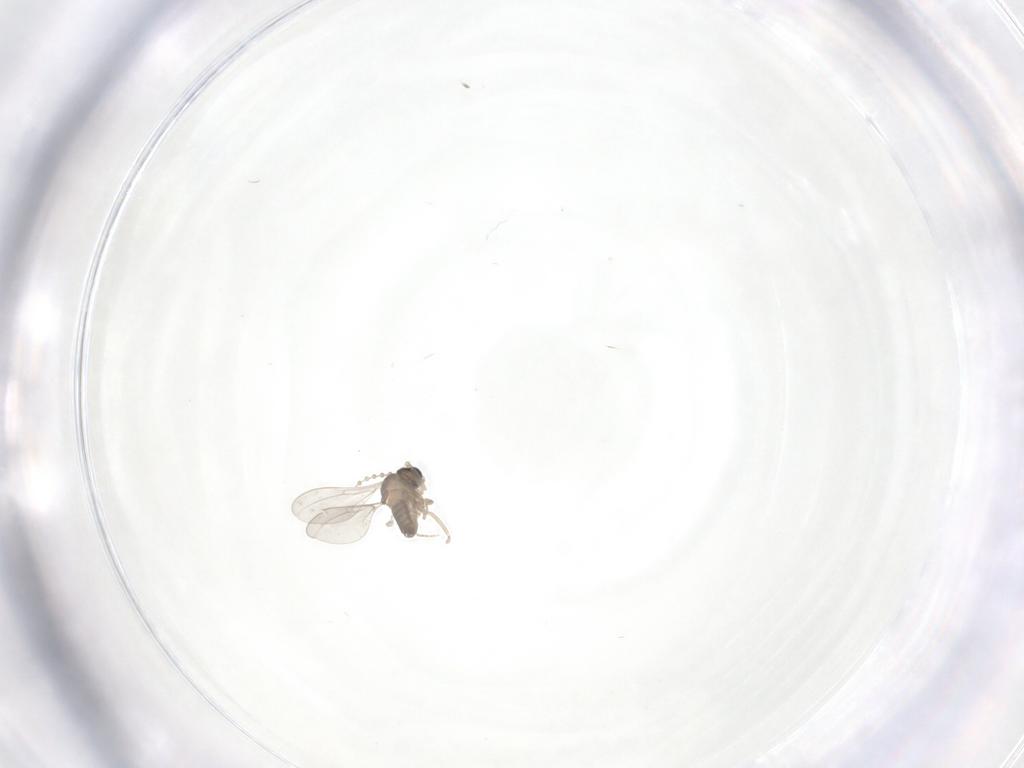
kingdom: Animalia
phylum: Arthropoda
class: Insecta
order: Diptera
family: Cecidomyiidae
